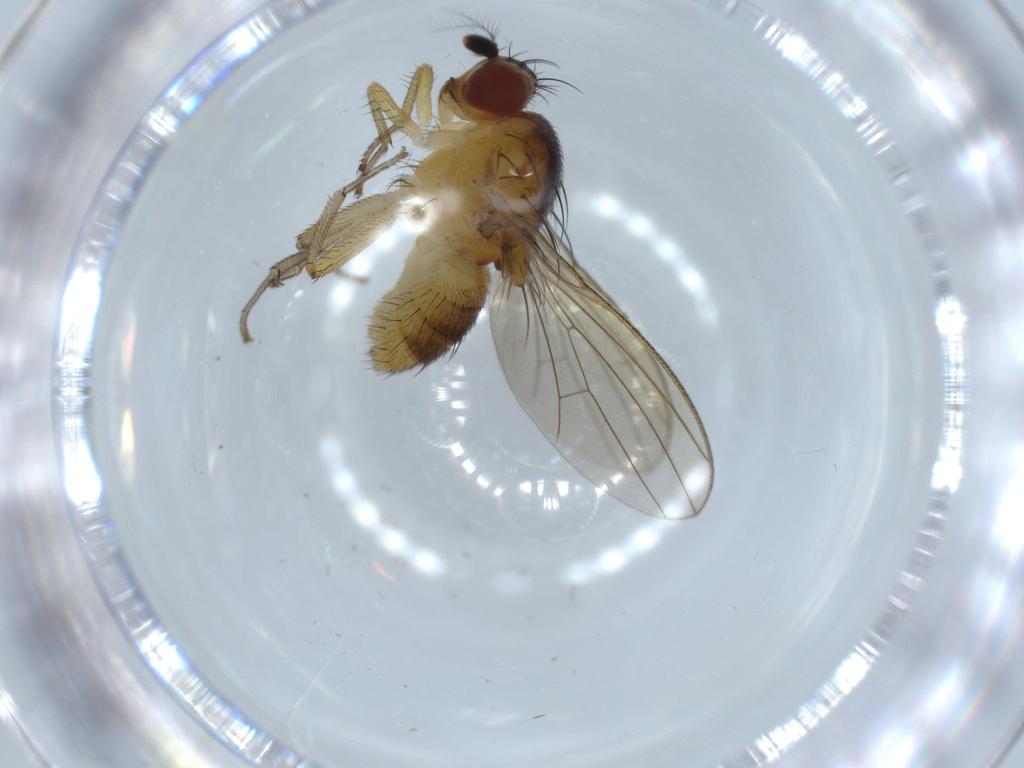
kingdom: Animalia
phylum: Arthropoda
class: Insecta
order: Diptera
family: Lauxaniidae
